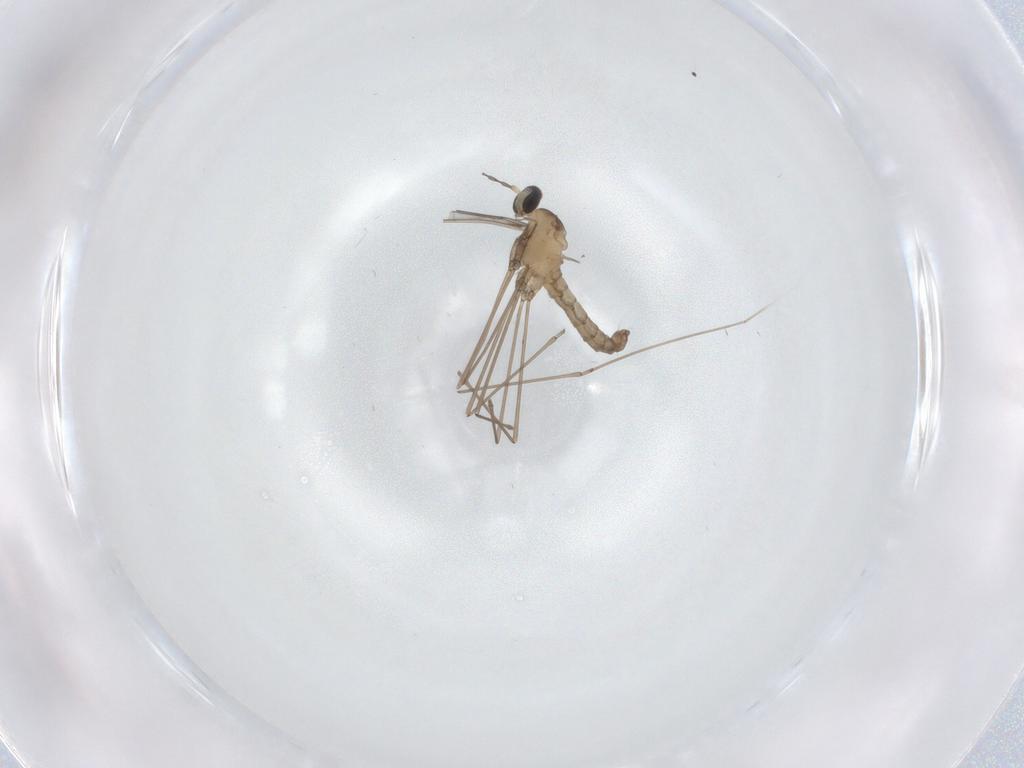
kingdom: Animalia
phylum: Arthropoda
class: Insecta
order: Diptera
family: Cecidomyiidae
